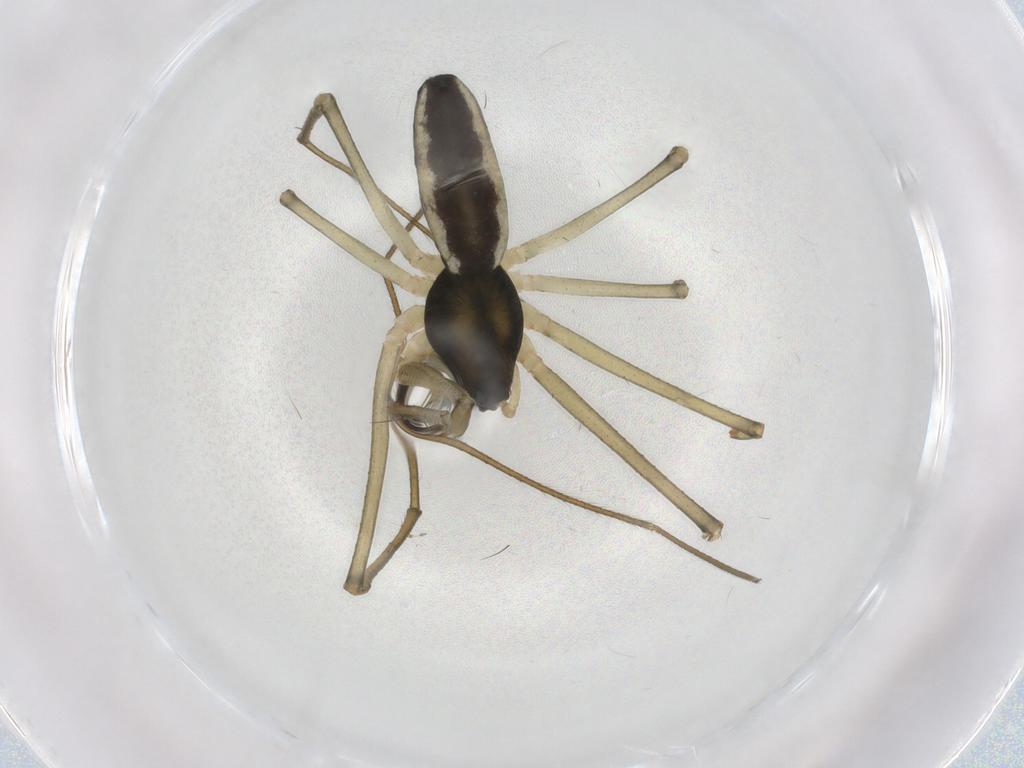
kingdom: Animalia
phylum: Arthropoda
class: Arachnida
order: Araneae
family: Linyphiidae
